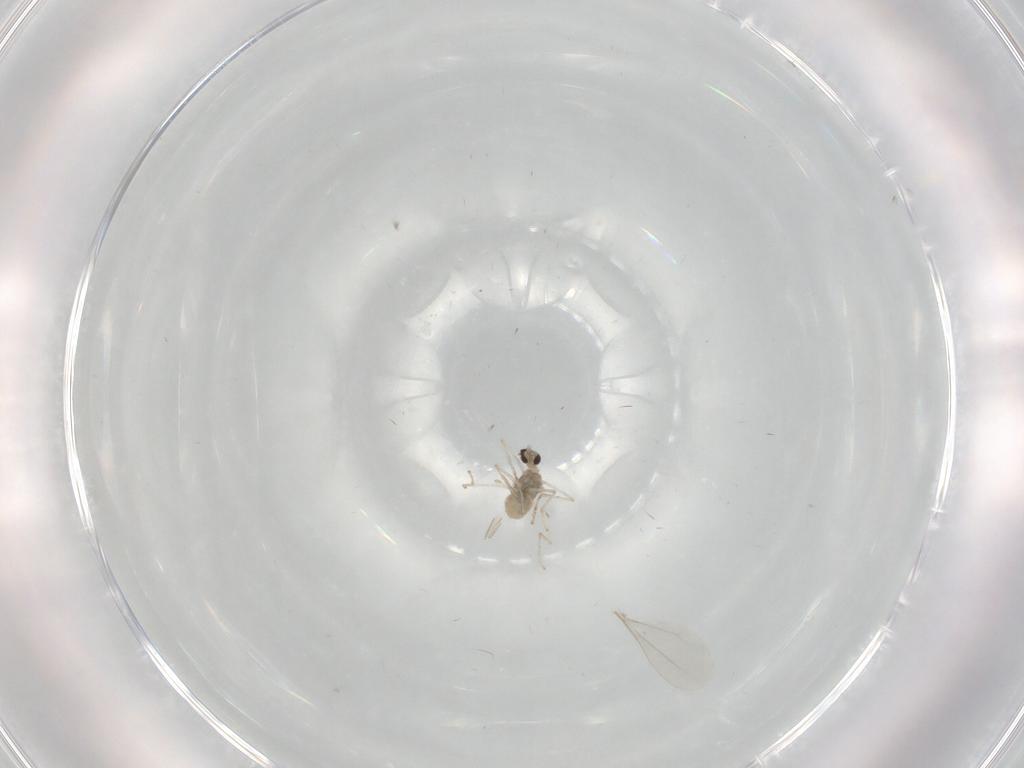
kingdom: Animalia
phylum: Arthropoda
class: Insecta
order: Diptera
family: Cecidomyiidae
